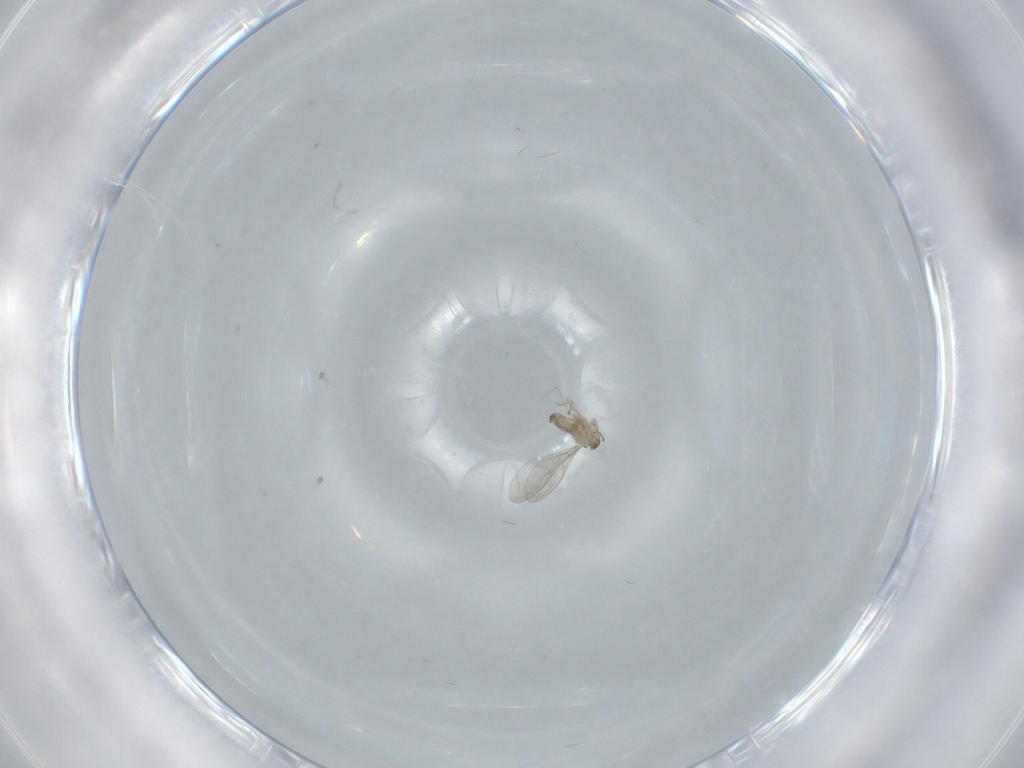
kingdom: Animalia
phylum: Arthropoda
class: Insecta
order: Diptera
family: Cecidomyiidae
